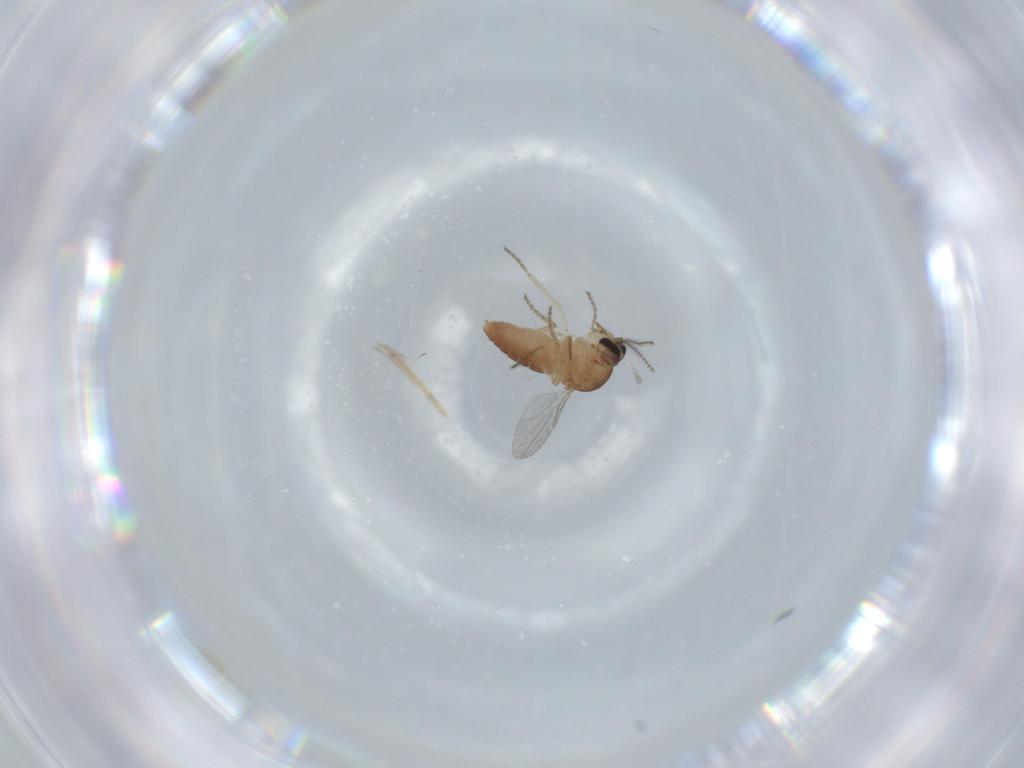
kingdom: Animalia
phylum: Arthropoda
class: Insecta
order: Diptera
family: Ceratopogonidae
